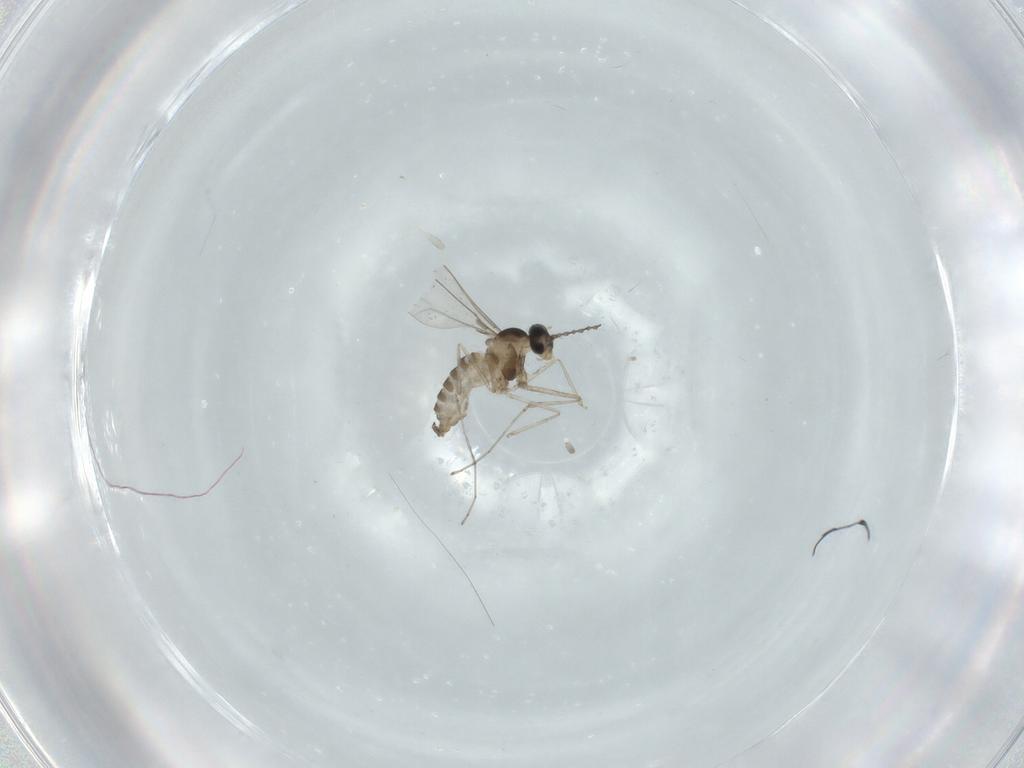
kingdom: Animalia
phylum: Arthropoda
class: Insecta
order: Diptera
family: Cecidomyiidae
